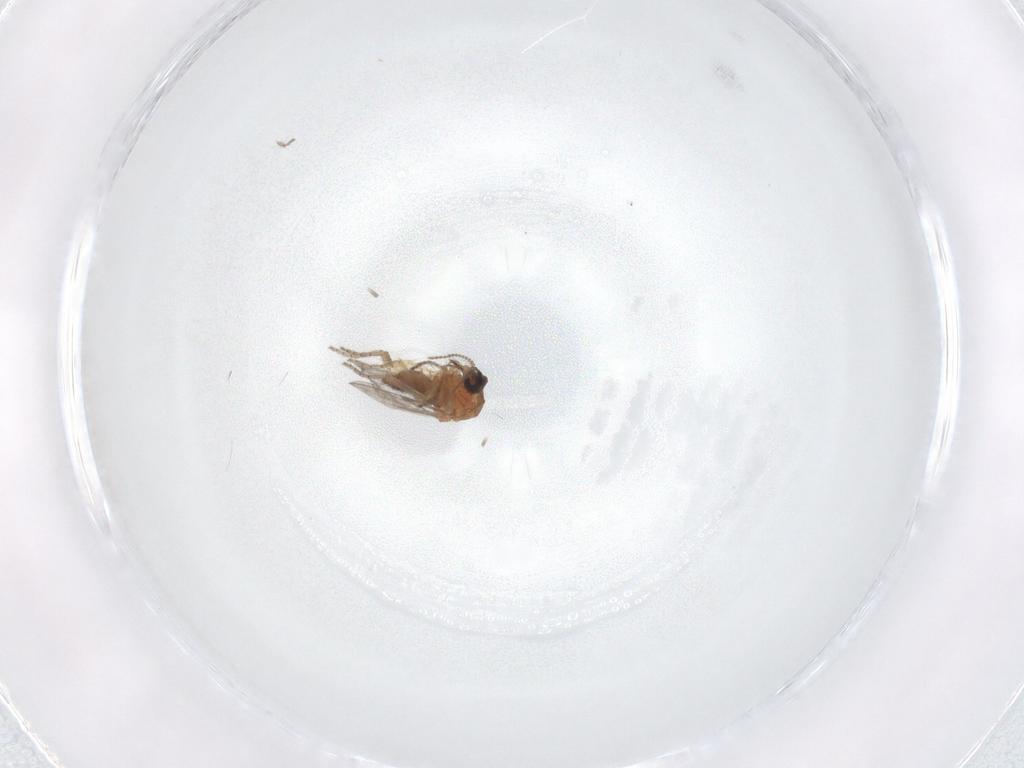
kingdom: Animalia
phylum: Arthropoda
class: Insecta
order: Diptera
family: Ceratopogonidae
